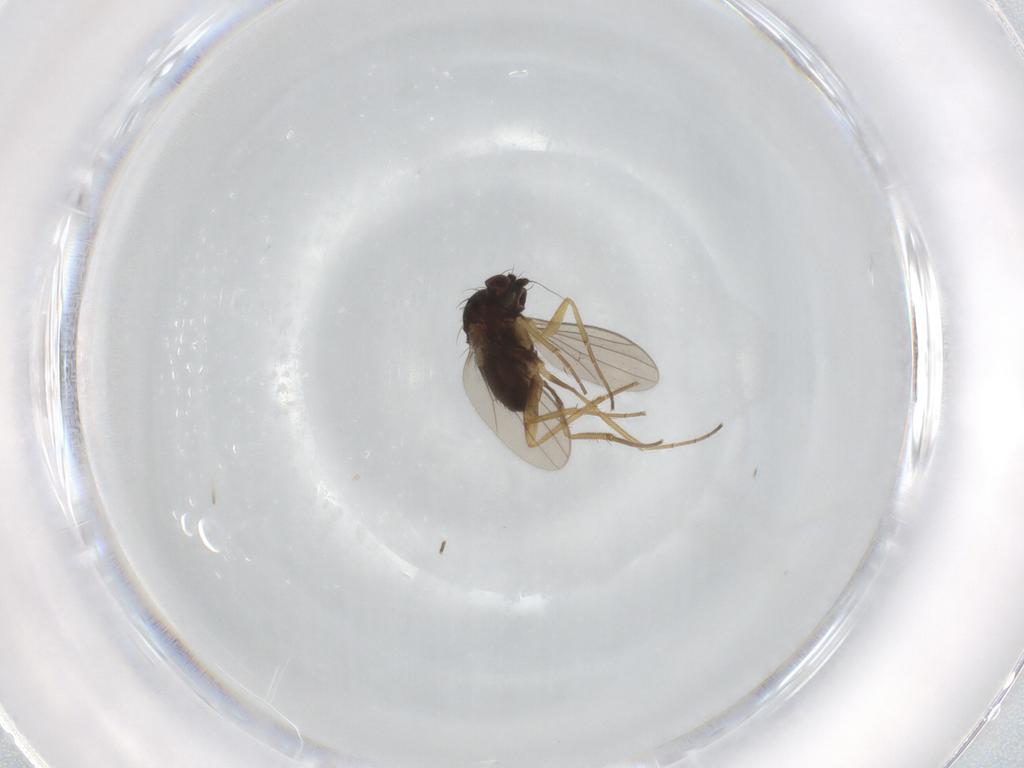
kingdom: Animalia
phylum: Arthropoda
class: Insecta
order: Diptera
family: Dolichopodidae
